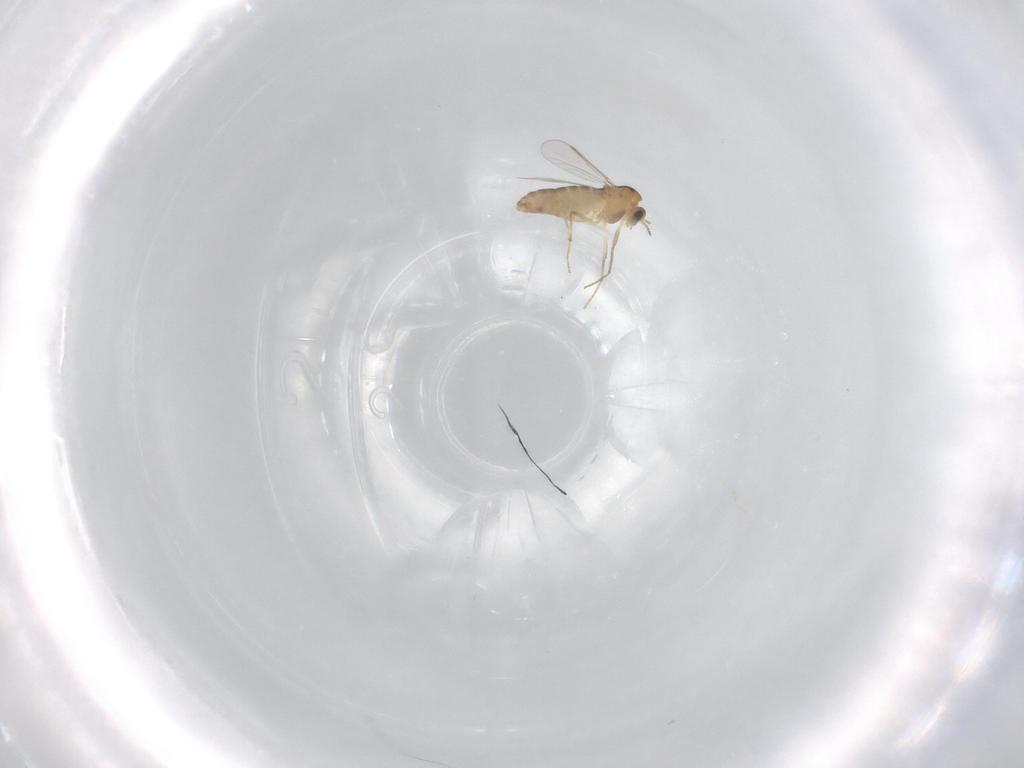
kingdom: Animalia
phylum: Arthropoda
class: Insecta
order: Diptera
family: Chironomidae
